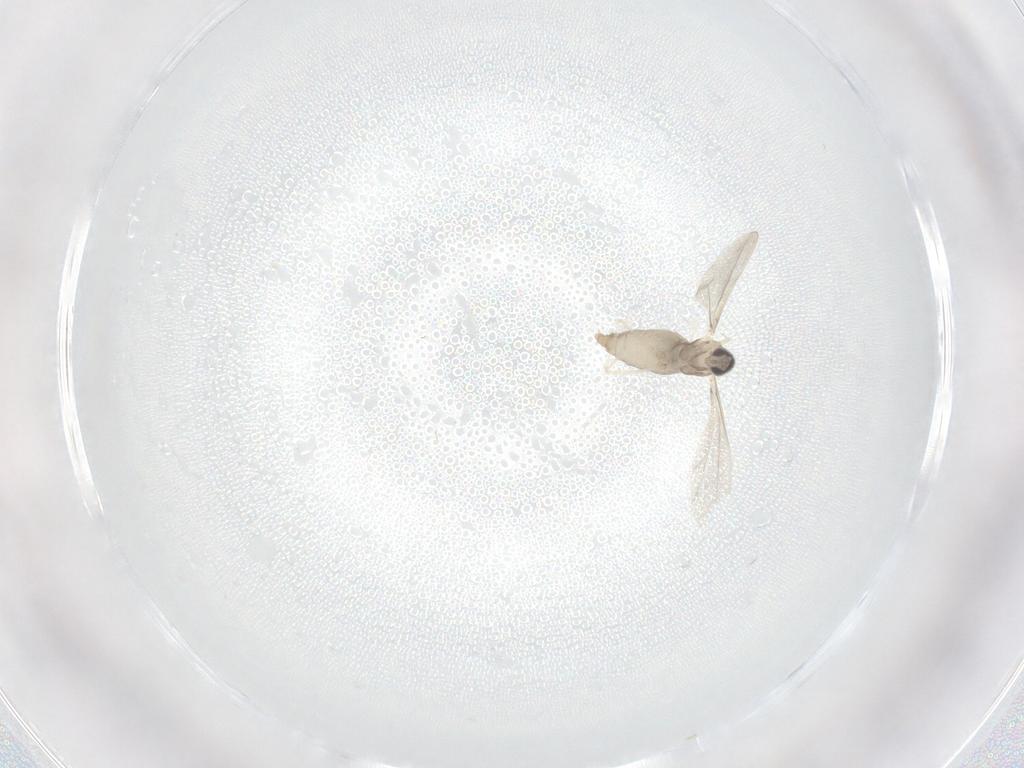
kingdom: Animalia
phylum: Arthropoda
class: Insecta
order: Diptera
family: Cecidomyiidae
